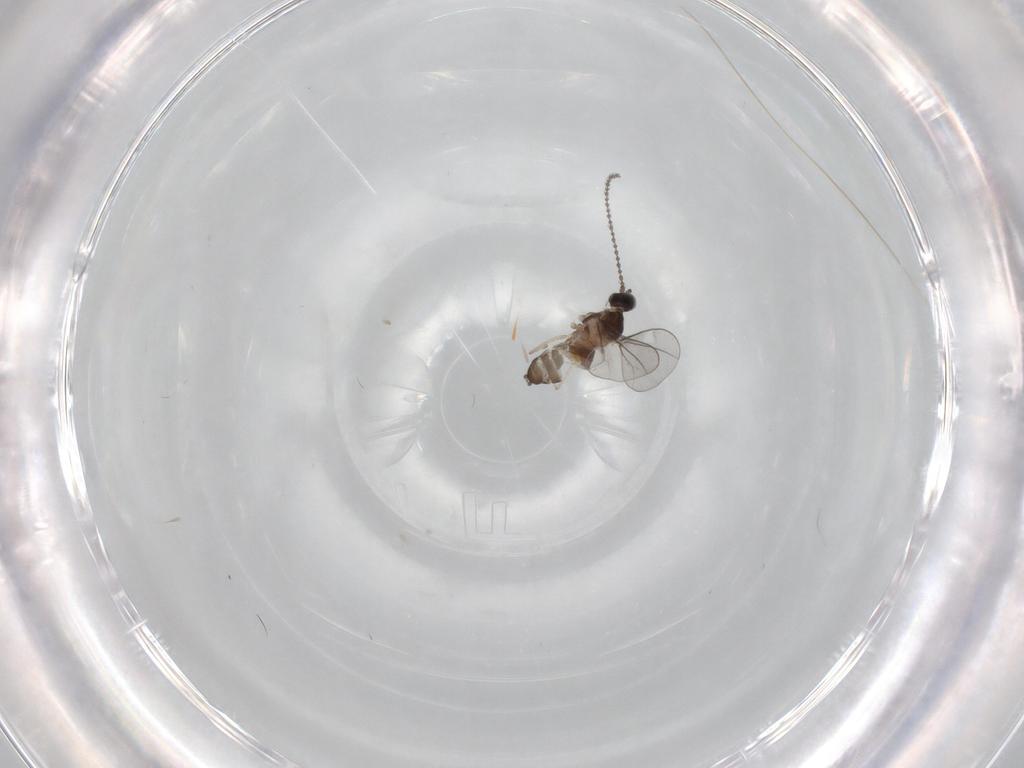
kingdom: Animalia
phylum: Arthropoda
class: Insecta
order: Diptera
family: Cecidomyiidae
